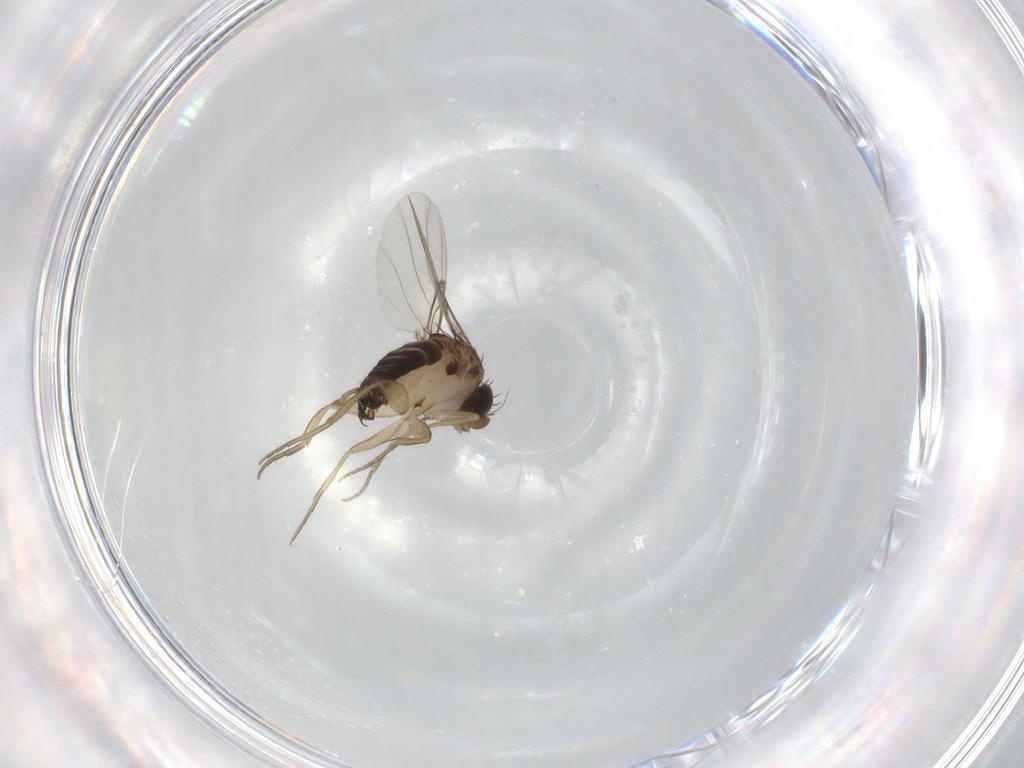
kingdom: Animalia
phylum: Arthropoda
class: Insecta
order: Diptera
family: Phoridae
